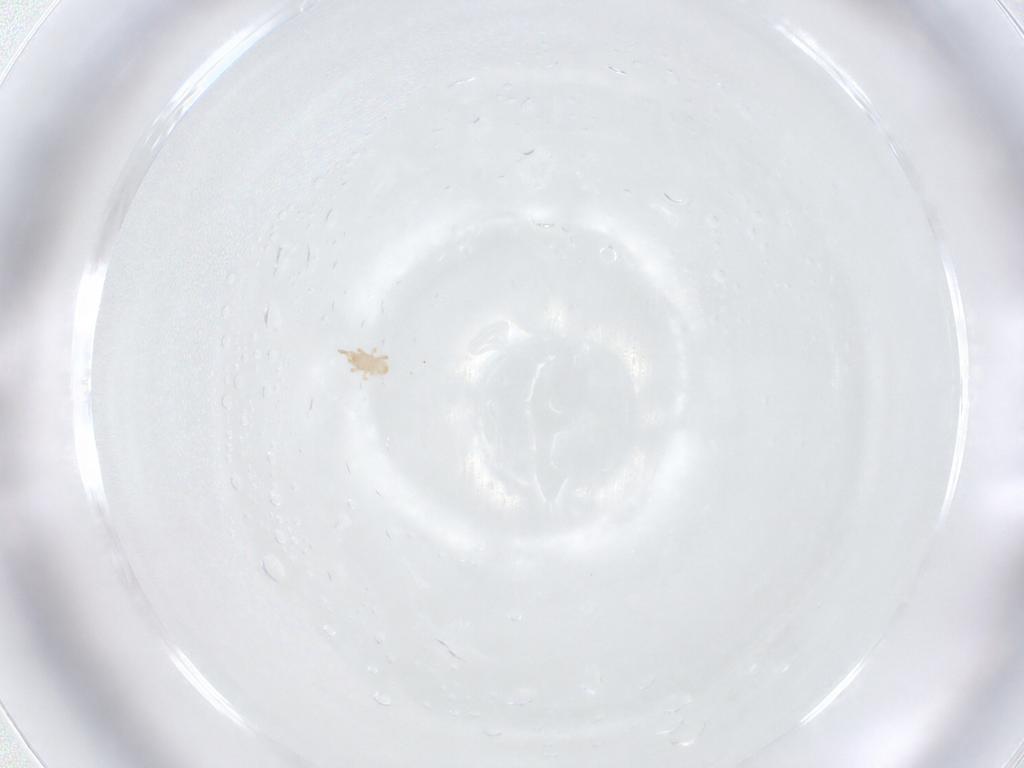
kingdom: Animalia
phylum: Arthropoda
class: Arachnida
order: Mesostigmata
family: Ascidae
